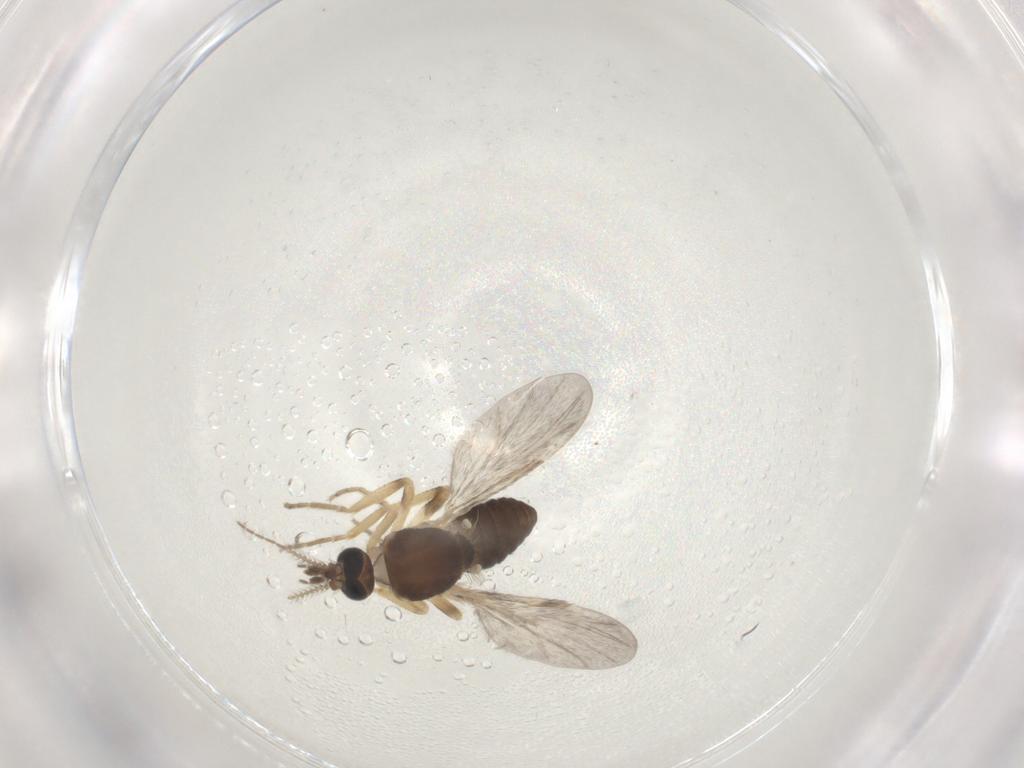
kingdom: Animalia
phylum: Arthropoda
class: Insecta
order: Diptera
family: Ceratopogonidae
